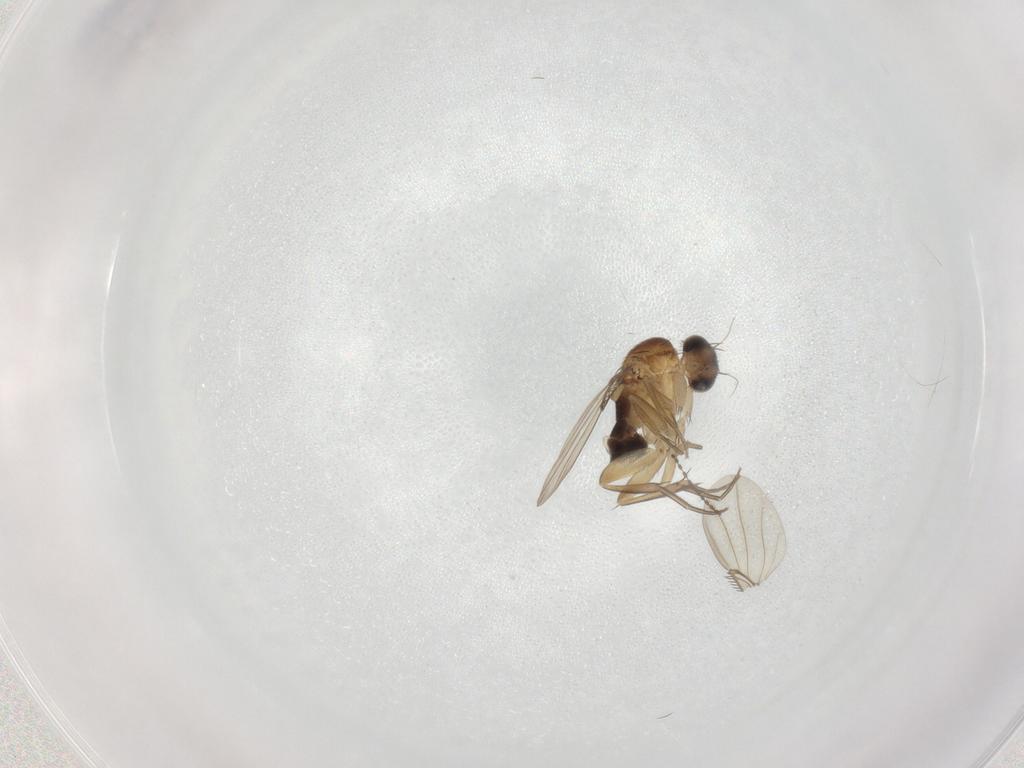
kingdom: Animalia
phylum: Arthropoda
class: Insecta
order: Diptera
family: Phoridae
